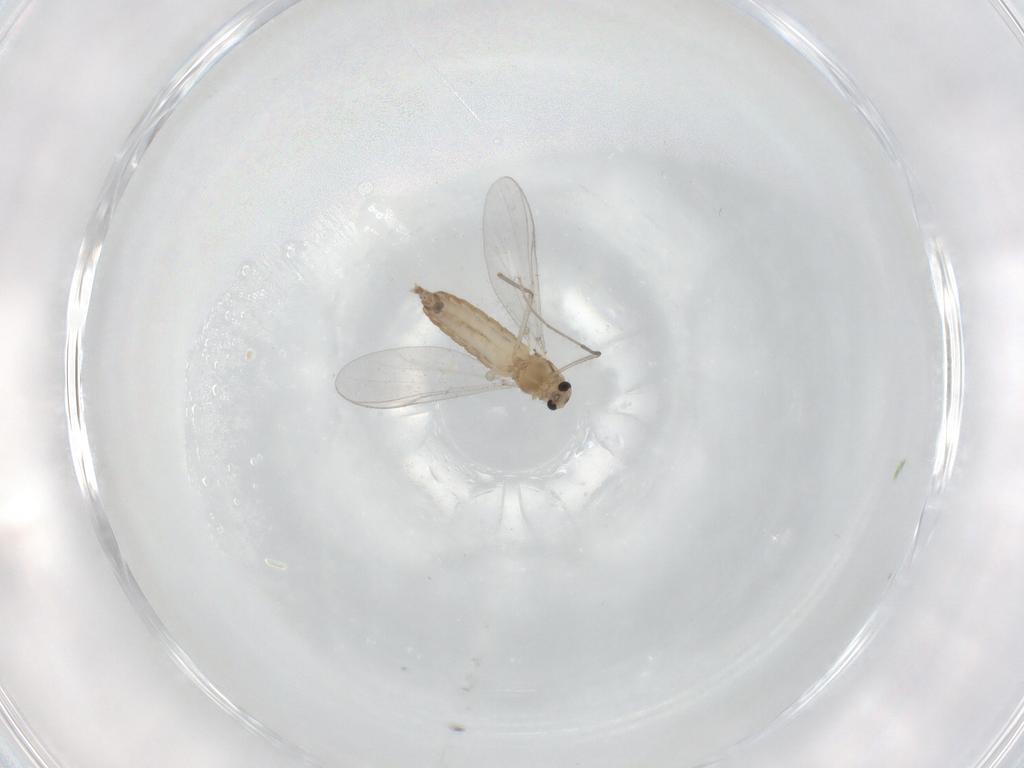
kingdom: Animalia
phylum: Arthropoda
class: Insecta
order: Diptera
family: Chironomidae
